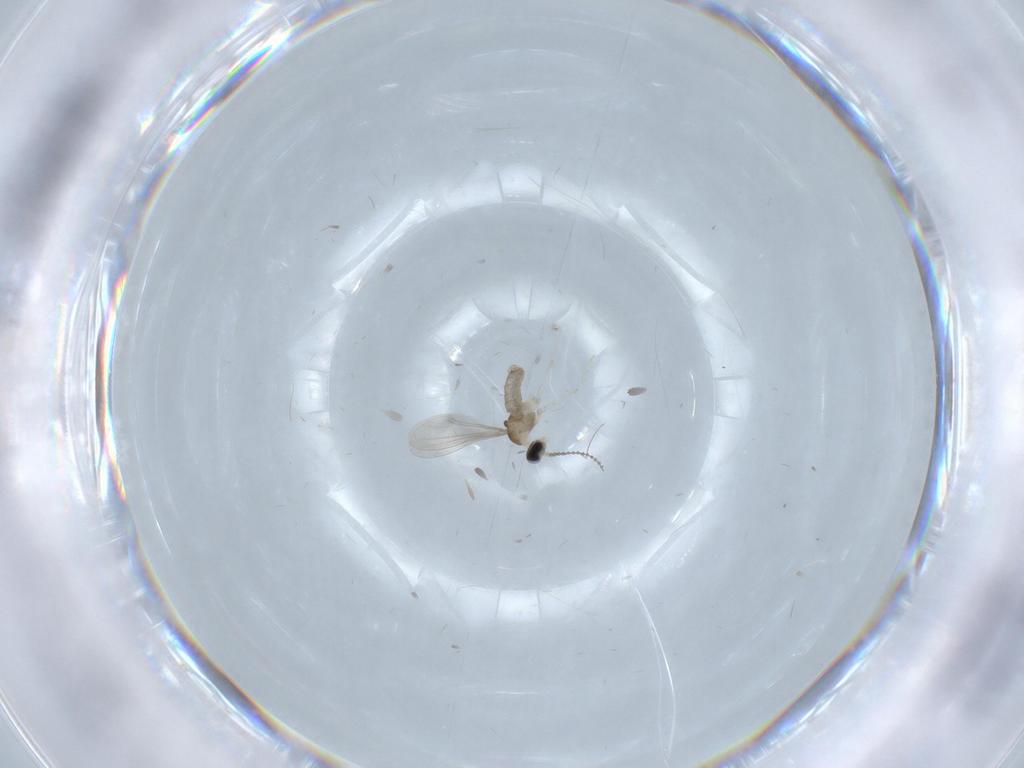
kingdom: Animalia
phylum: Arthropoda
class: Insecta
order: Diptera
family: Cecidomyiidae
